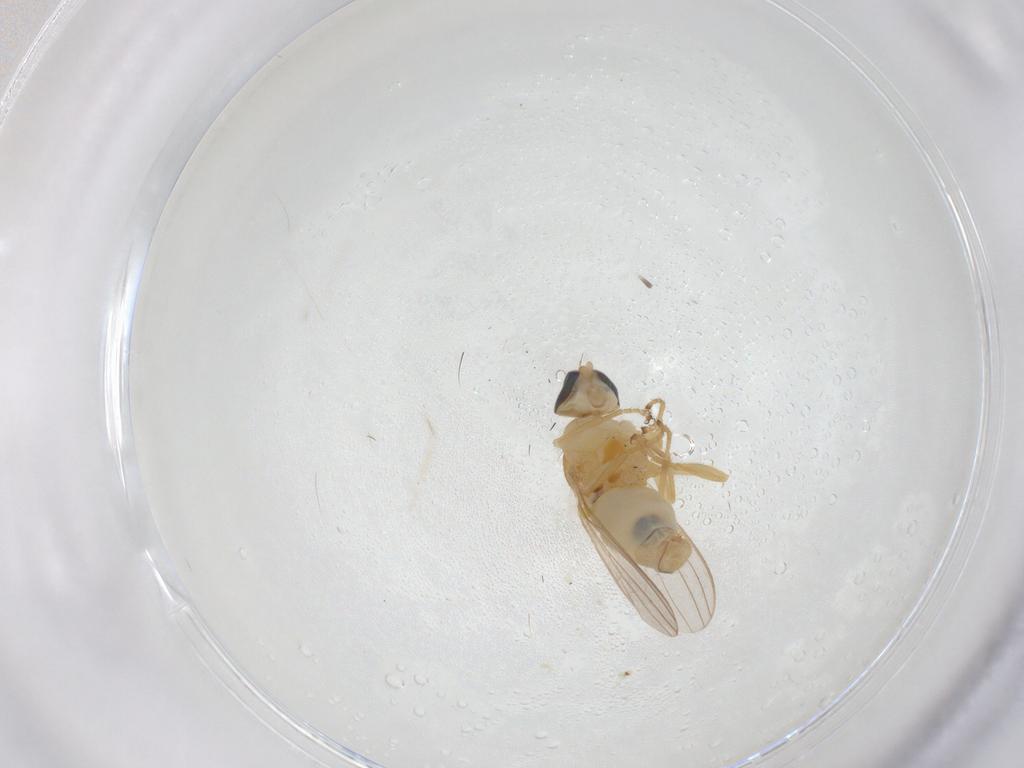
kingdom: Animalia
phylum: Arthropoda
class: Insecta
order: Diptera
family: Chyromyidae
